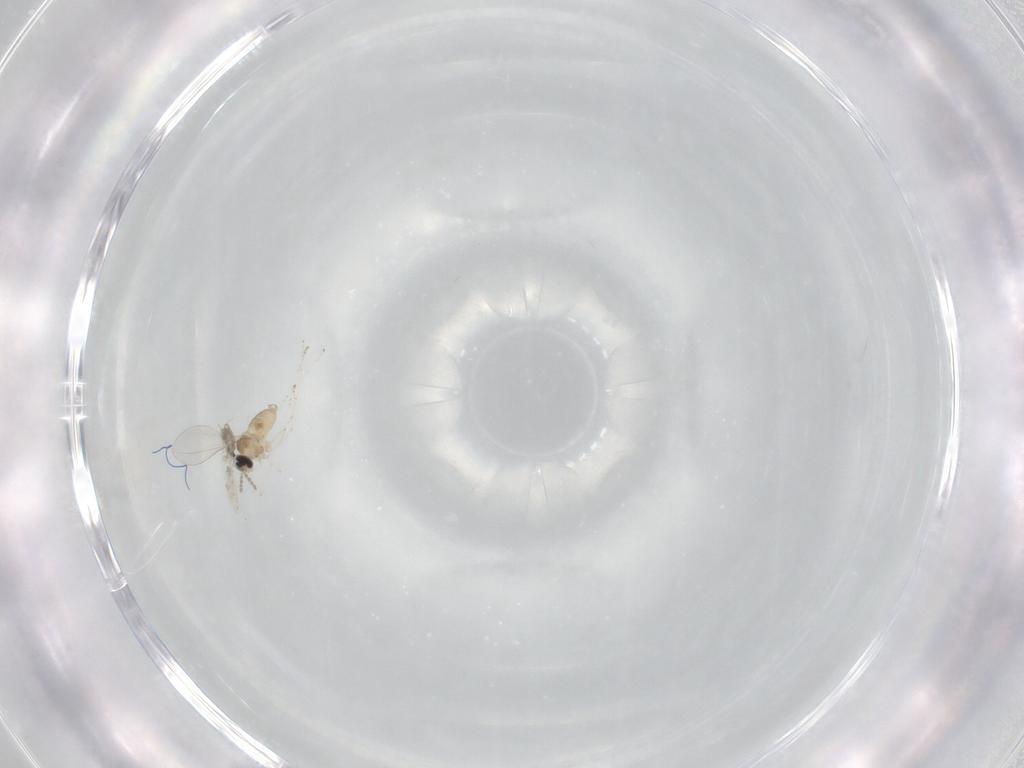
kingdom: Animalia
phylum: Arthropoda
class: Insecta
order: Diptera
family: Cecidomyiidae
